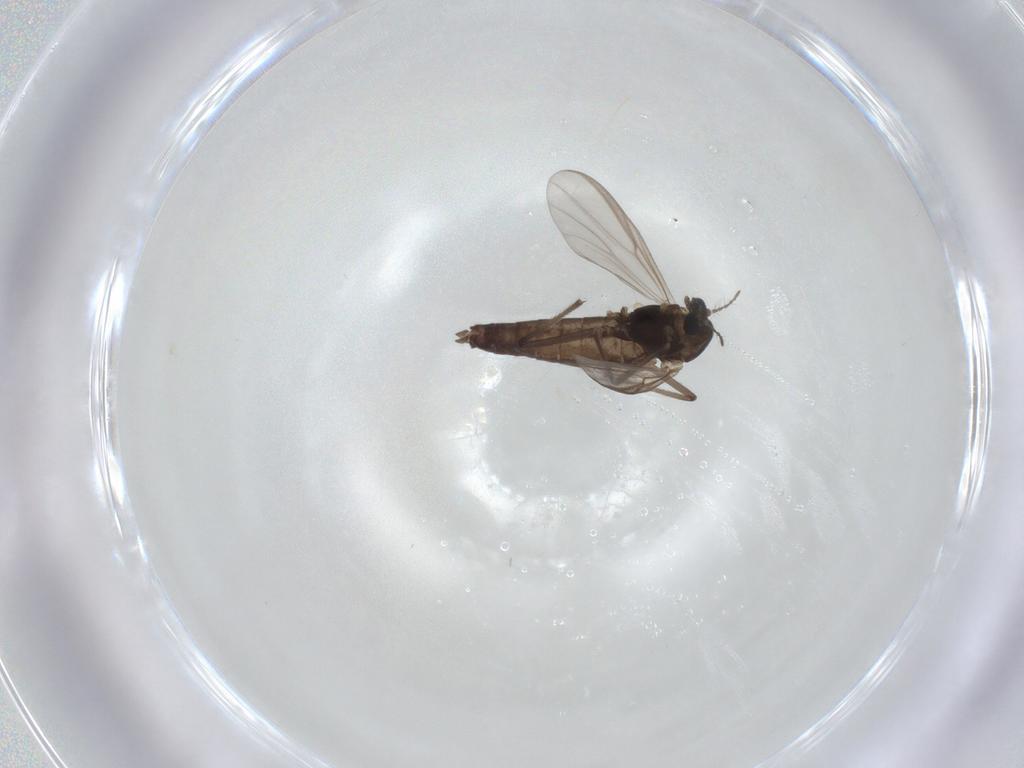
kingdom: Animalia
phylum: Arthropoda
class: Insecta
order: Diptera
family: Chironomidae
